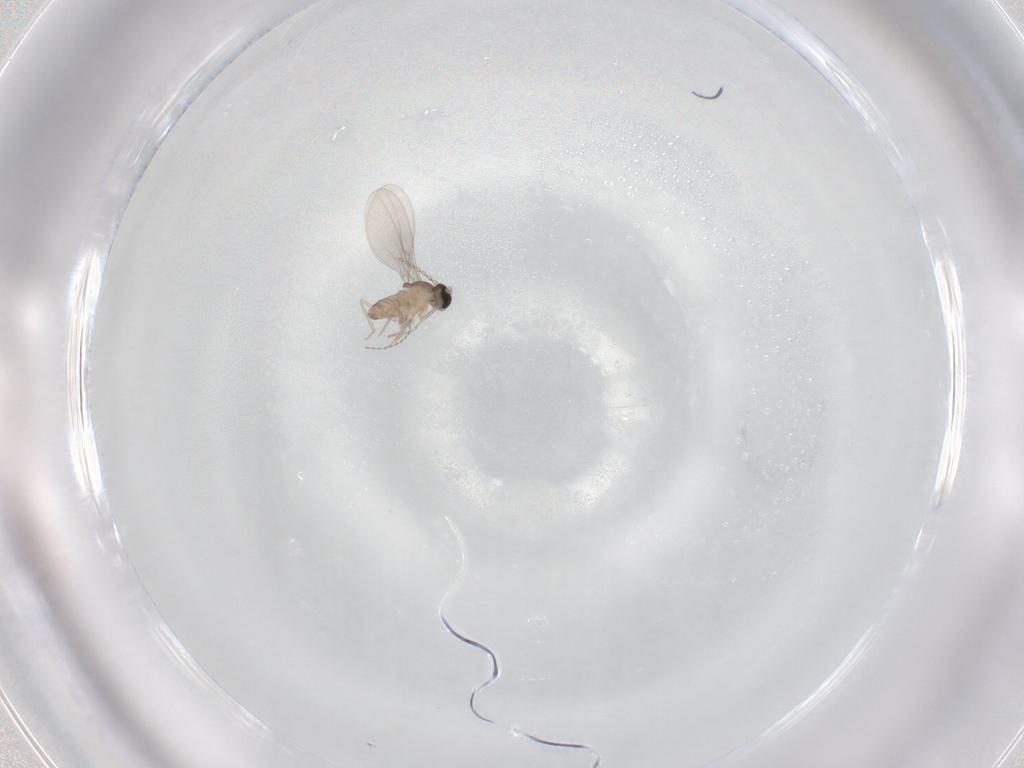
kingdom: Animalia
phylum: Arthropoda
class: Insecta
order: Diptera
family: Cecidomyiidae
